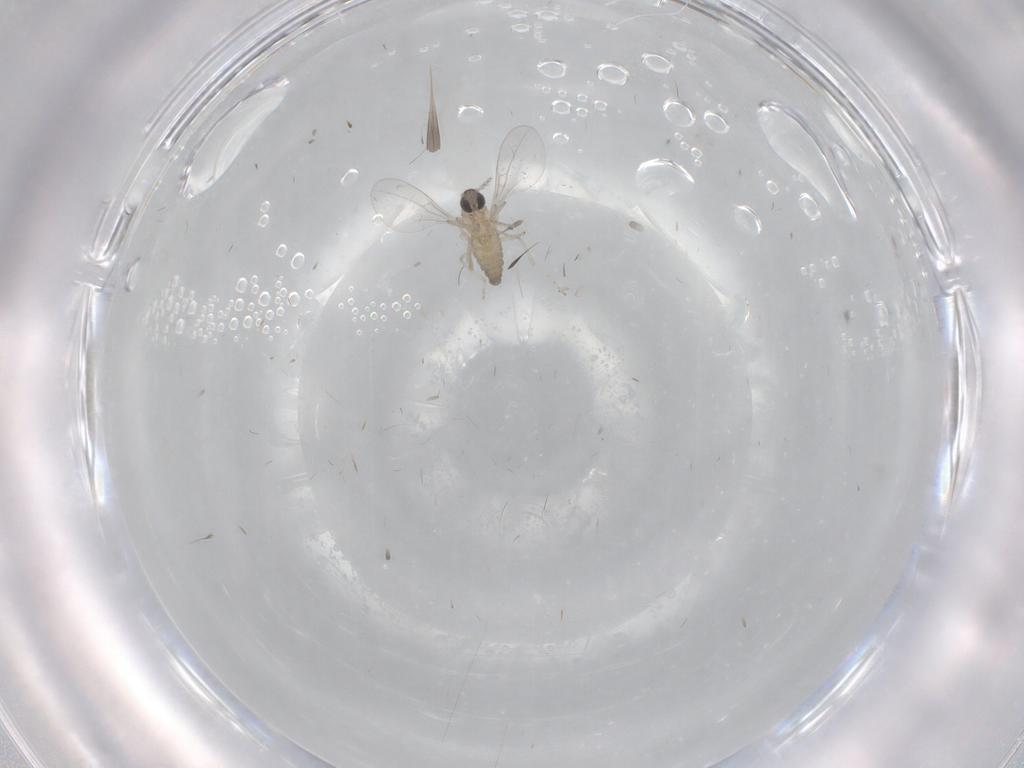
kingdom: Animalia
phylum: Arthropoda
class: Insecta
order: Diptera
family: Cecidomyiidae
